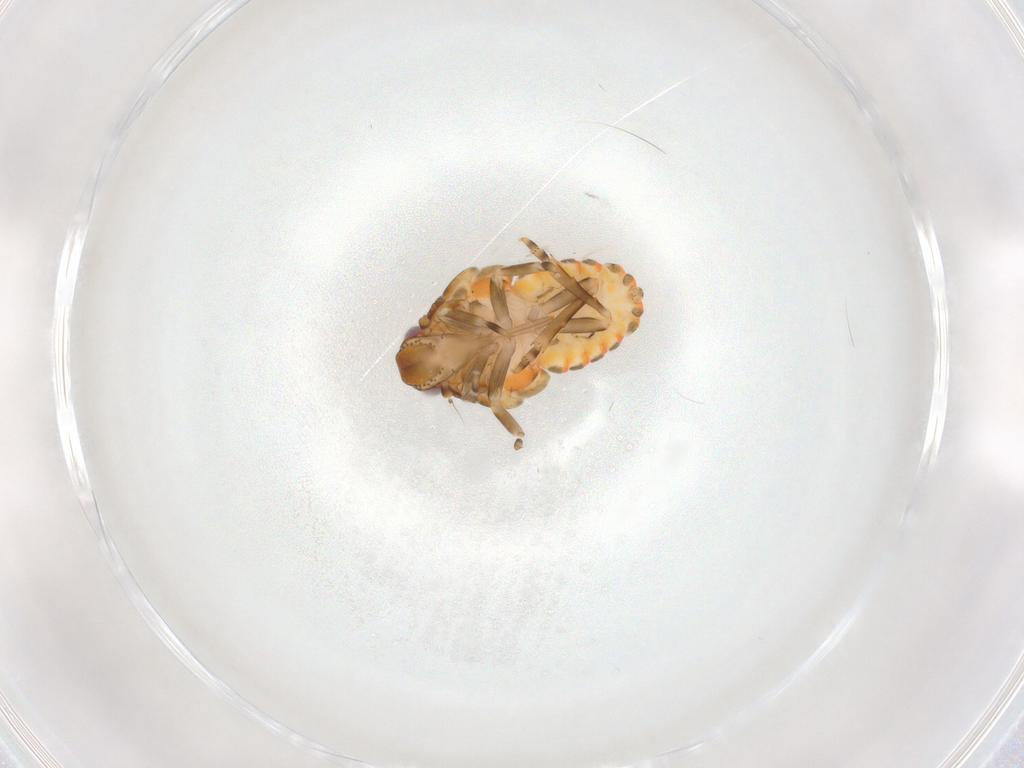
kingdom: Animalia
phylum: Arthropoda
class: Insecta
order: Hemiptera
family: Flatidae
